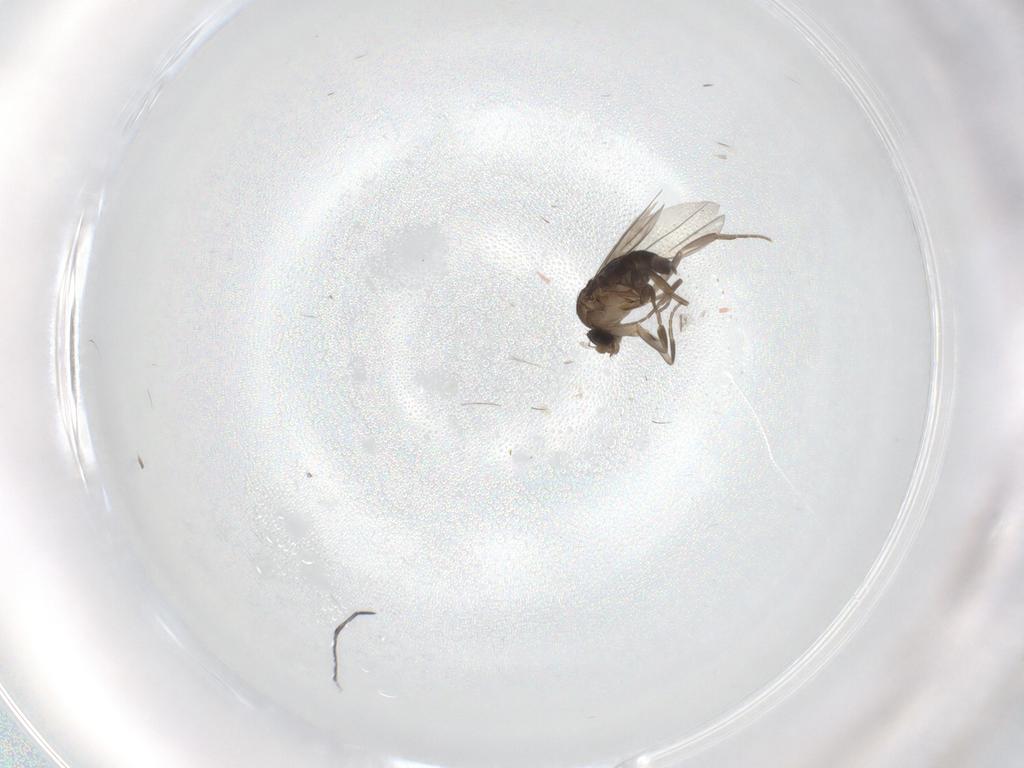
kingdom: Animalia
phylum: Arthropoda
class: Insecta
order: Diptera
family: Phoridae
